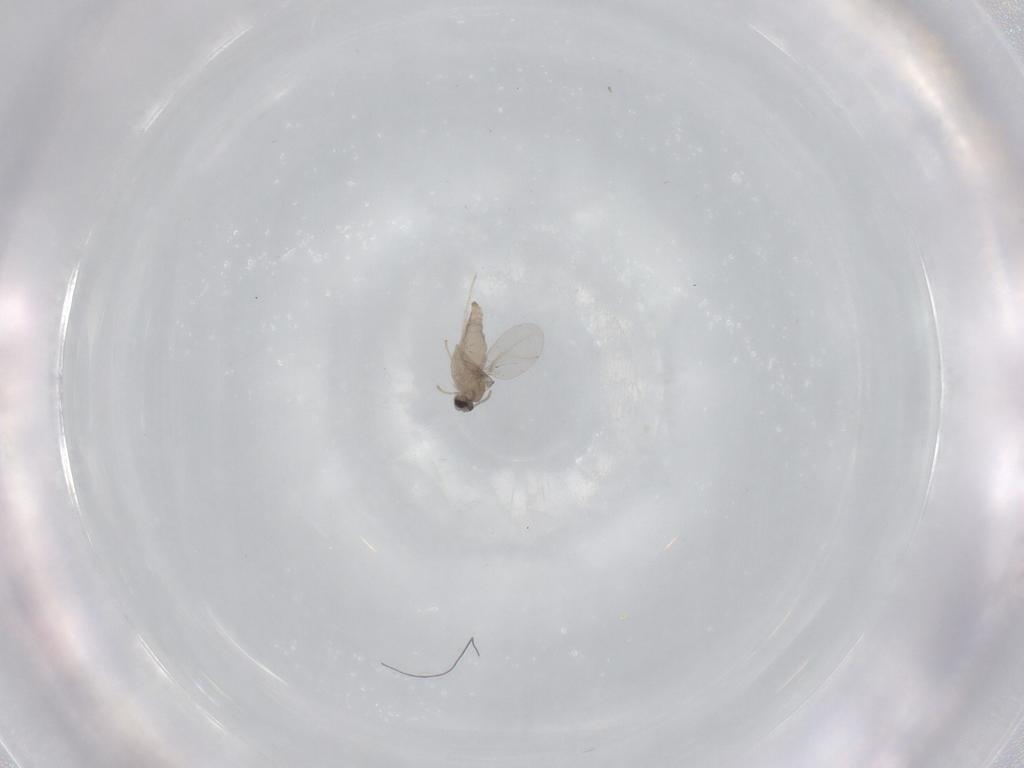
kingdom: Animalia
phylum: Arthropoda
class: Insecta
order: Diptera
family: Cecidomyiidae
